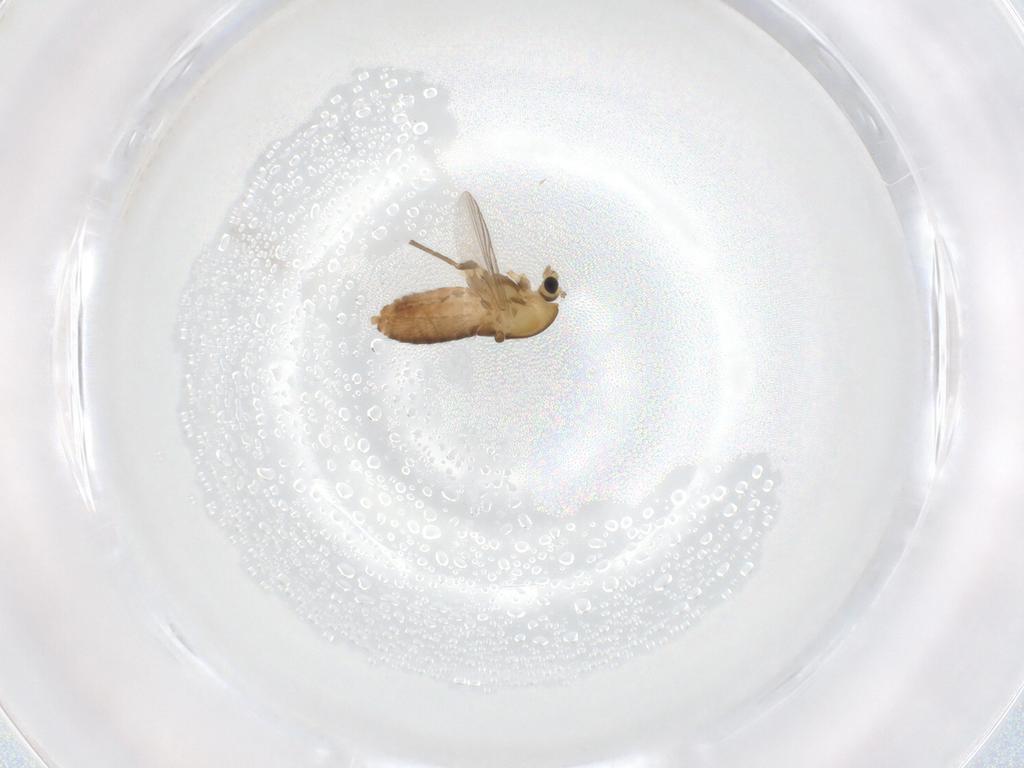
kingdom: Animalia
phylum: Arthropoda
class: Insecta
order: Diptera
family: Chironomidae
